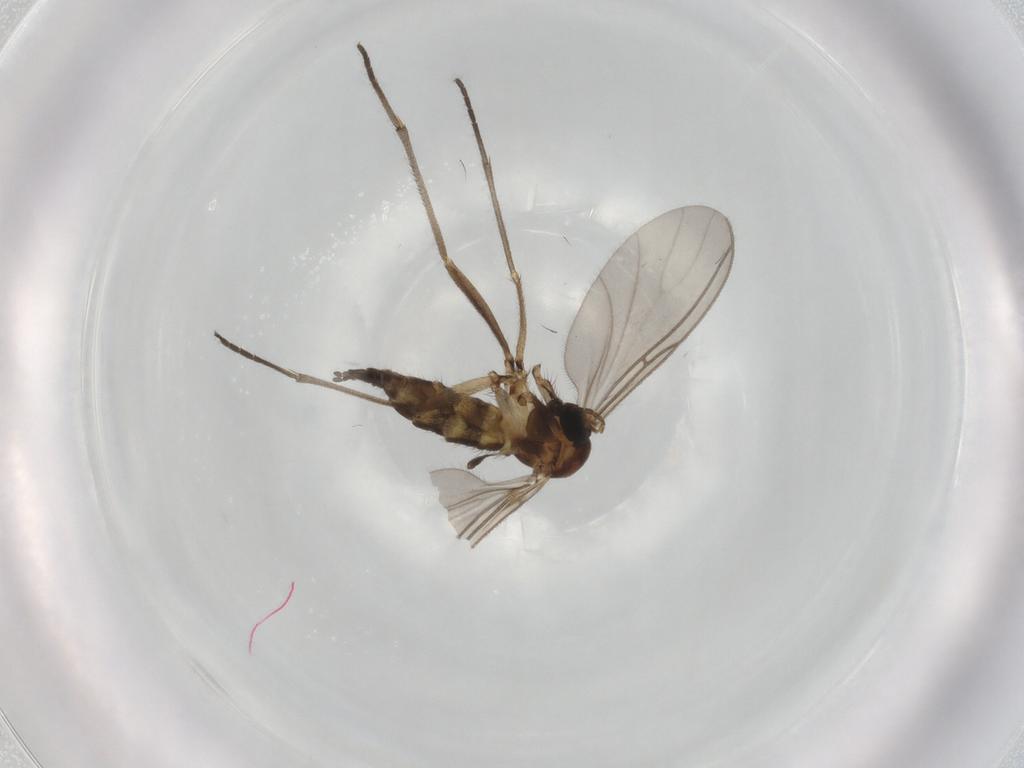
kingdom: Animalia
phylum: Arthropoda
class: Insecta
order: Diptera
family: Sciaridae
